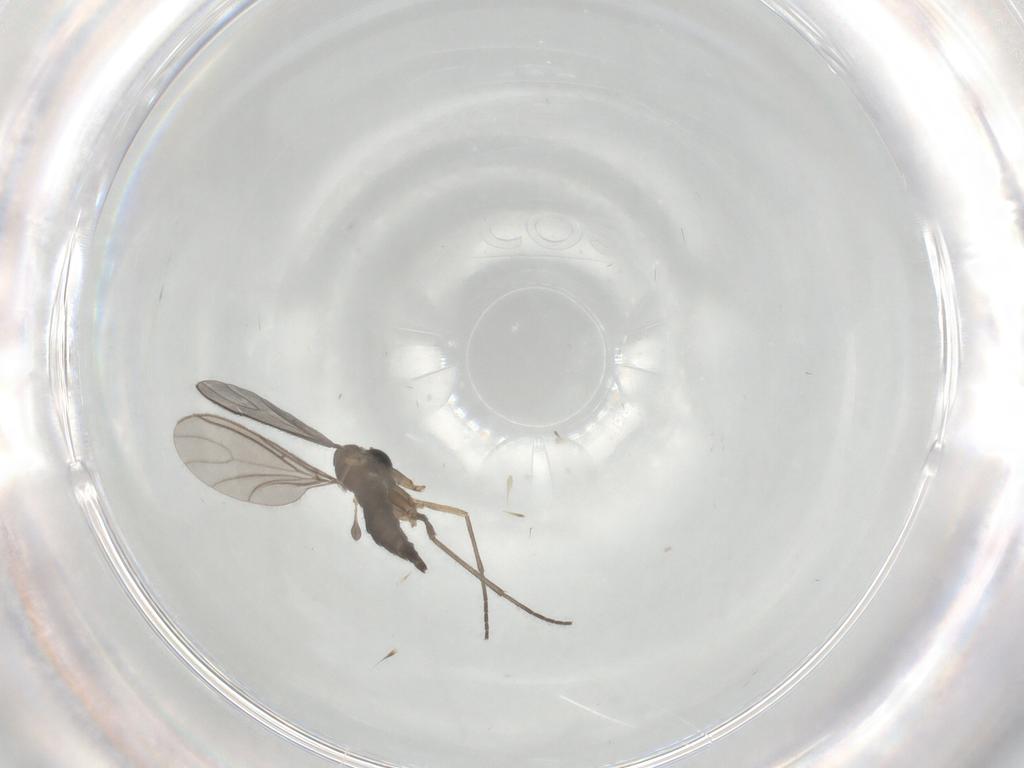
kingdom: Animalia
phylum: Arthropoda
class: Insecta
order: Diptera
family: Sciaridae
